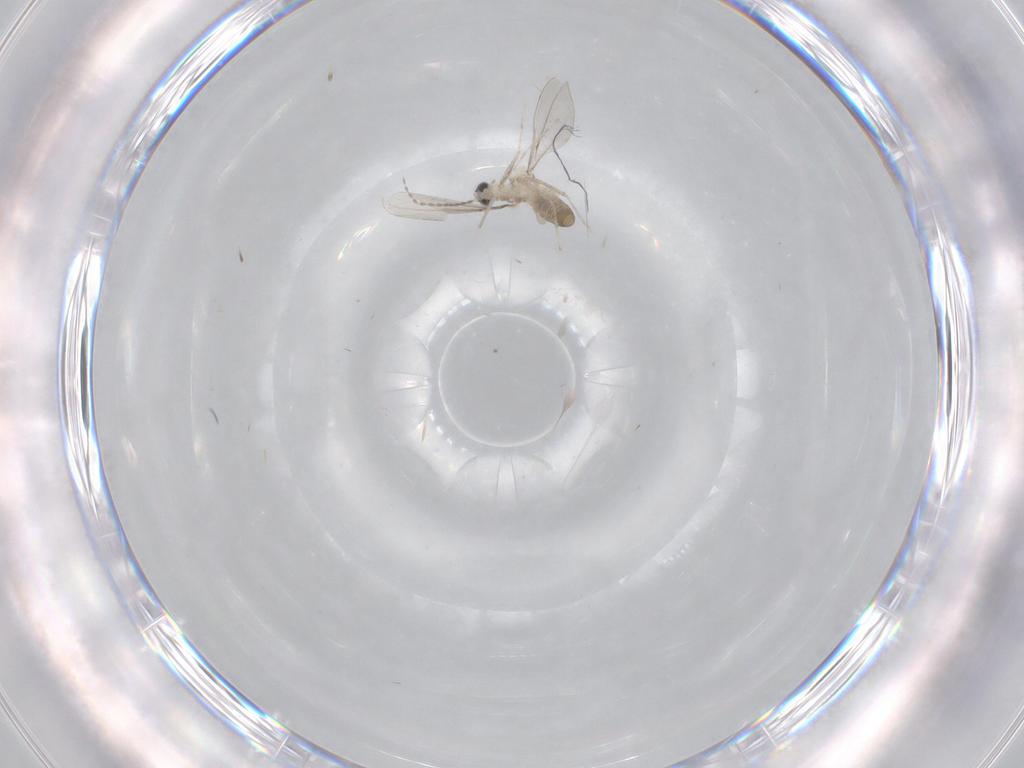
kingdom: Animalia
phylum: Arthropoda
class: Insecta
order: Diptera
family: Cecidomyiidae
